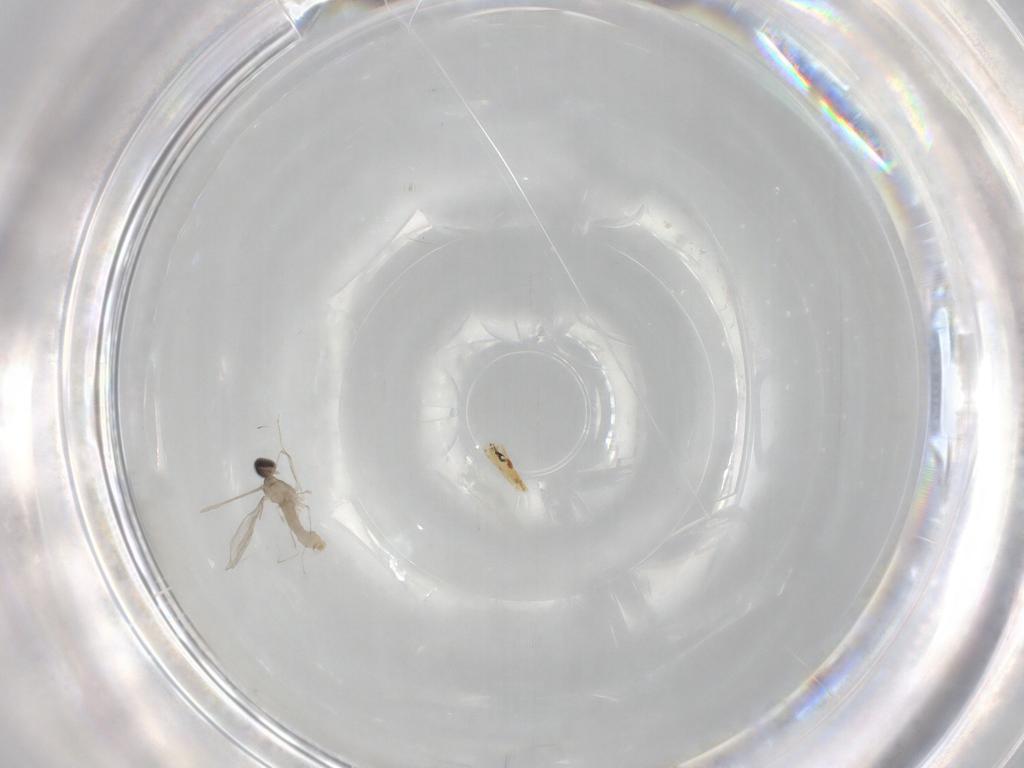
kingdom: Animalia
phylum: Arthropoda
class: Insecta
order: Diptera
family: Cecidomyiidae
